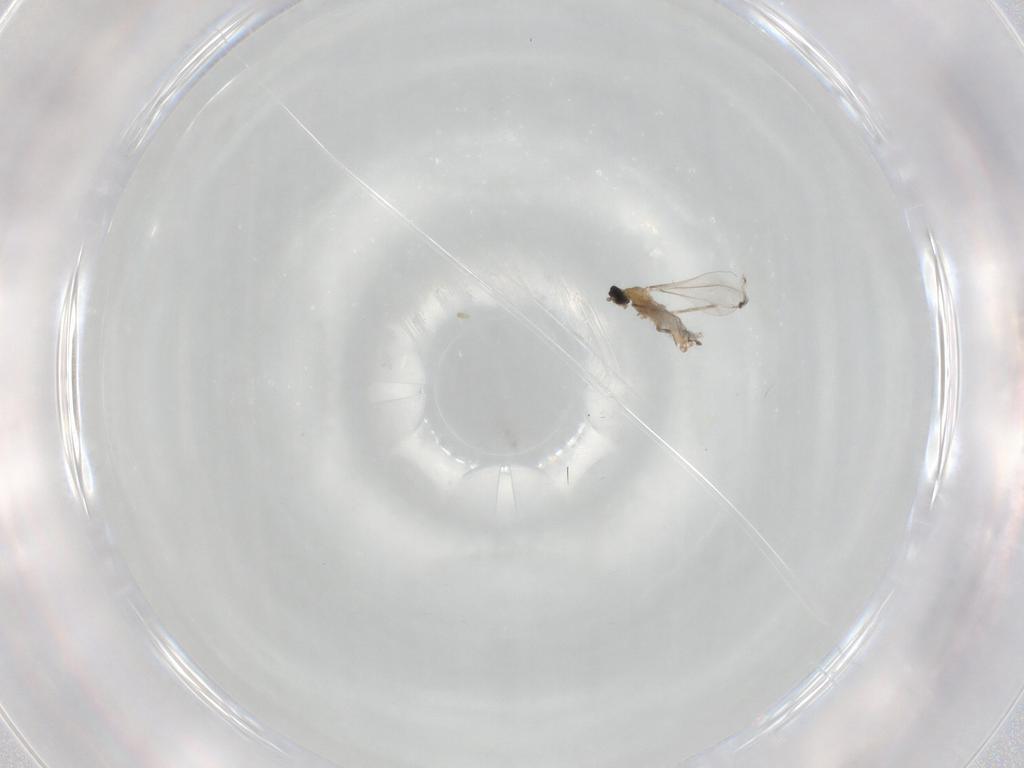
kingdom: Animalia
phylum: Arthropoda
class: Insecta
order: Diptera
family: Cecidomyiidae
